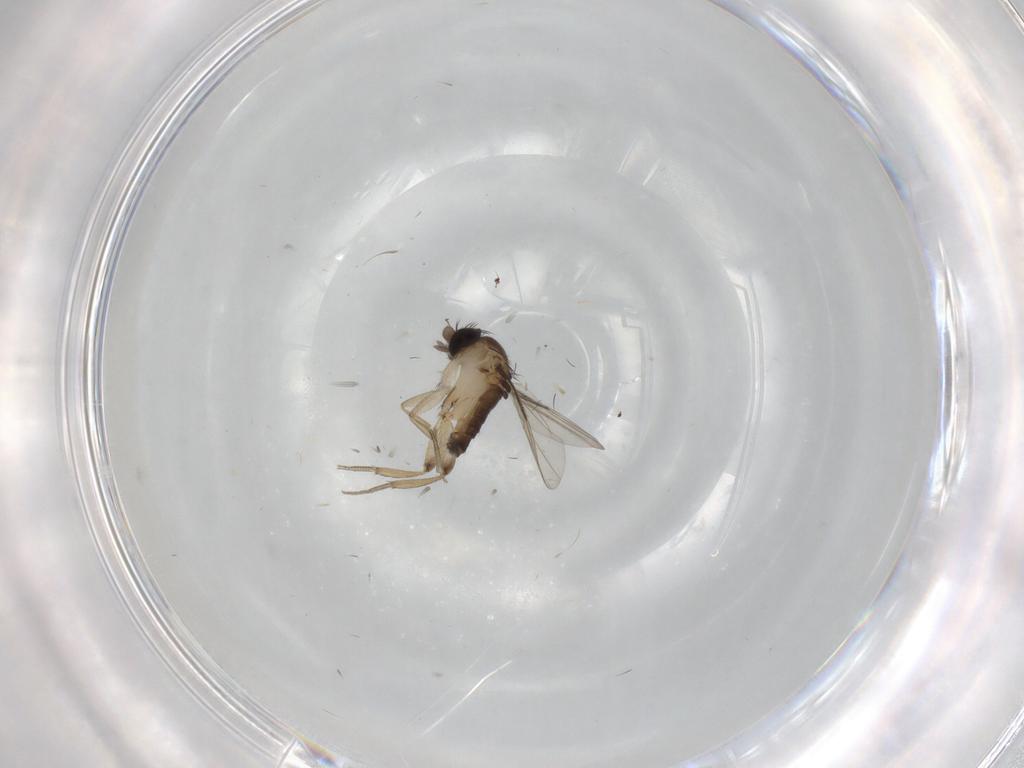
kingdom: Animalia
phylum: Arthropoda
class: Insecta
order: Diptera
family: Phoridae
